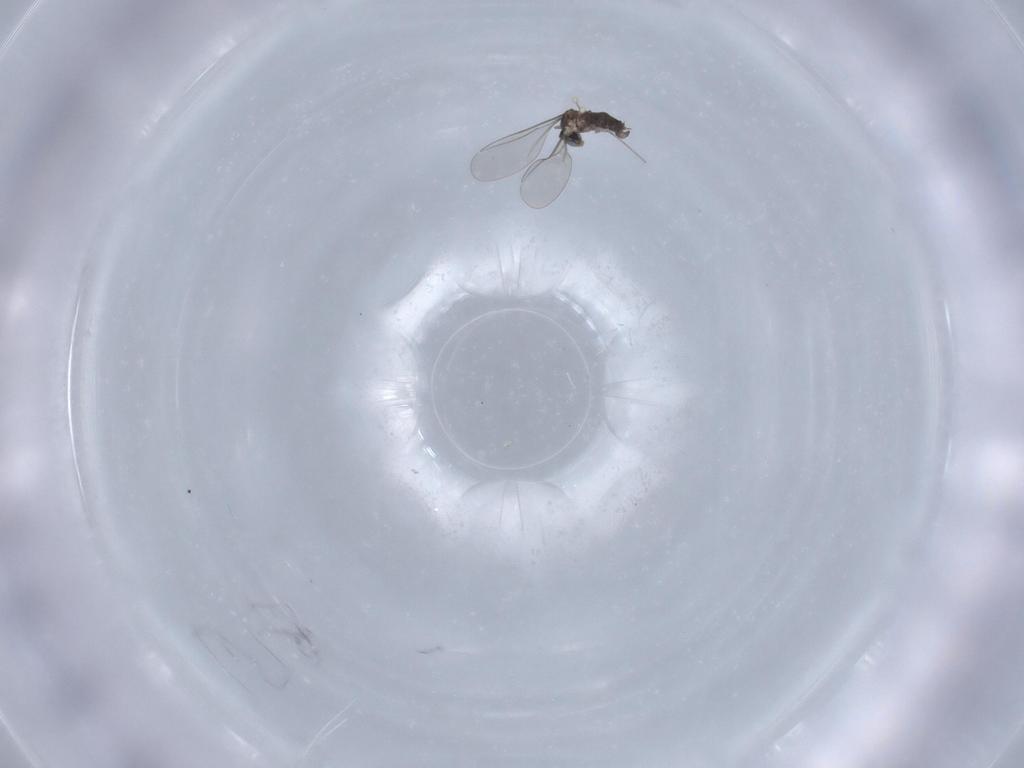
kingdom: Animalia
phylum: Arthropoda
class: Insecta
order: Diptera
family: Cecidomyiidae
